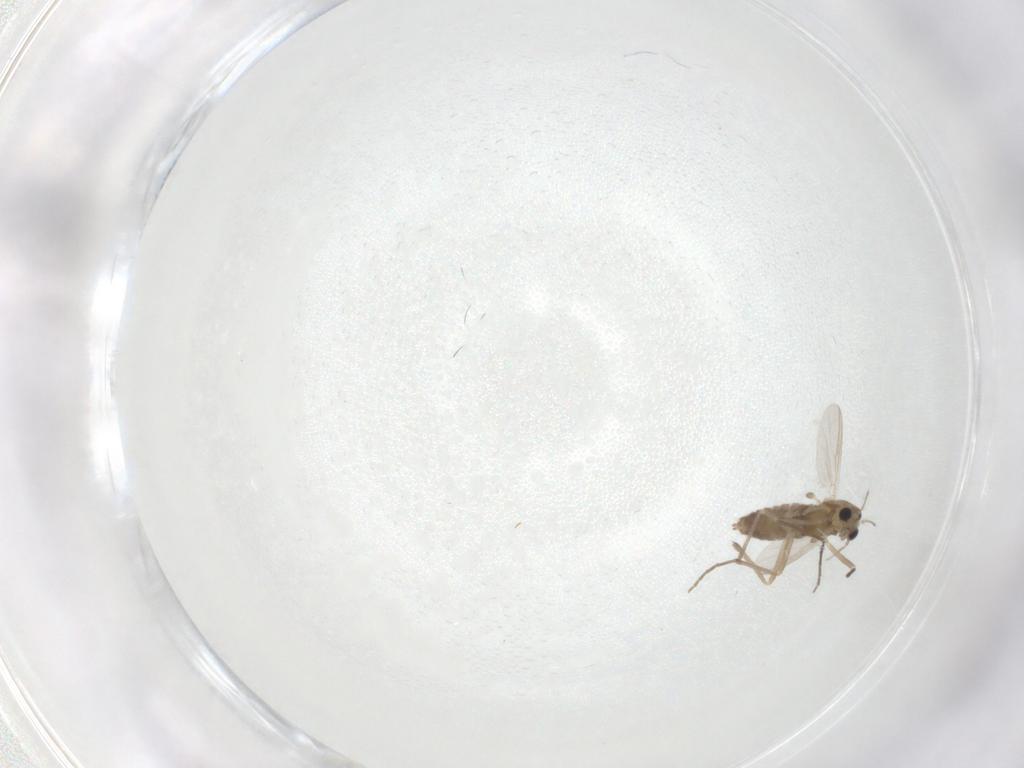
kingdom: Animalia
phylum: Arthropoda
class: Insecta
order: Diptera
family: Chironomidae
